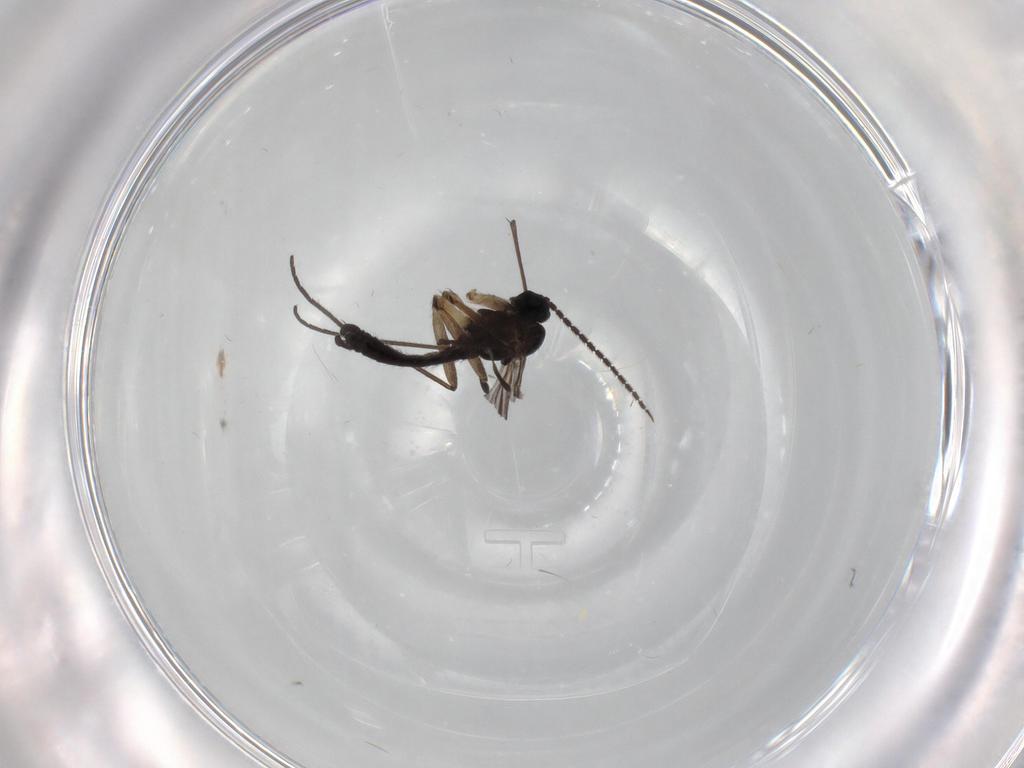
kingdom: Animalia
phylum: Arthropoda
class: Insecta
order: Diptera
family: Sciaridae
